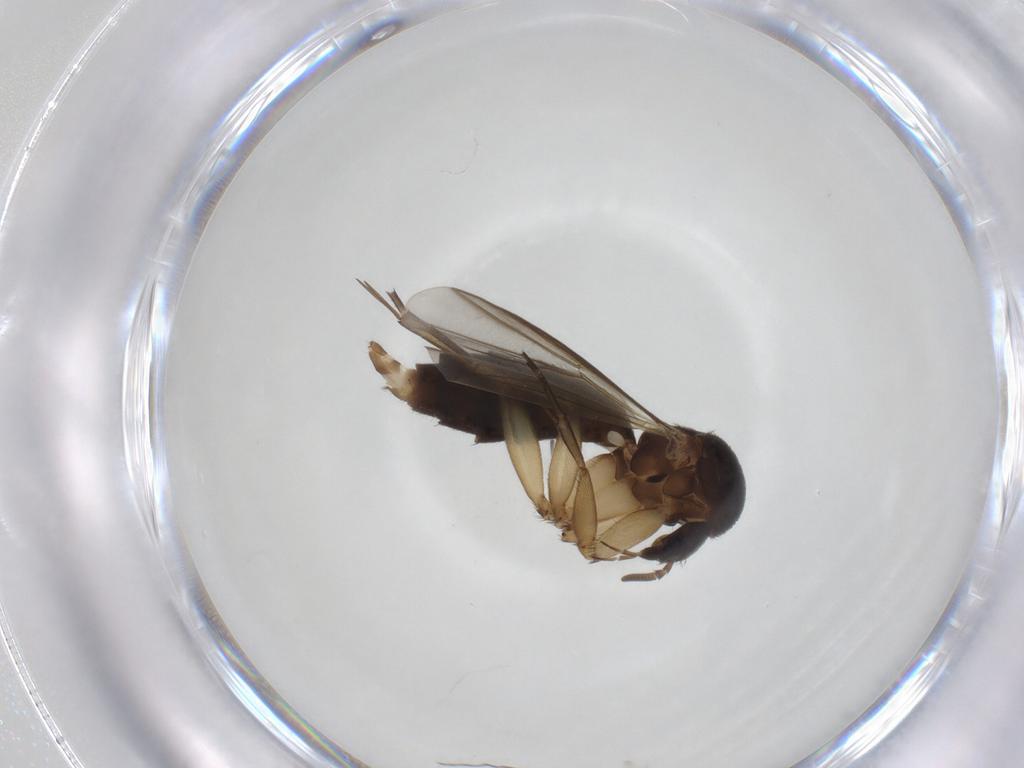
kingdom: Animalia
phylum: Arthropoda
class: Insecta
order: Diptera
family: Mycetophilidae
